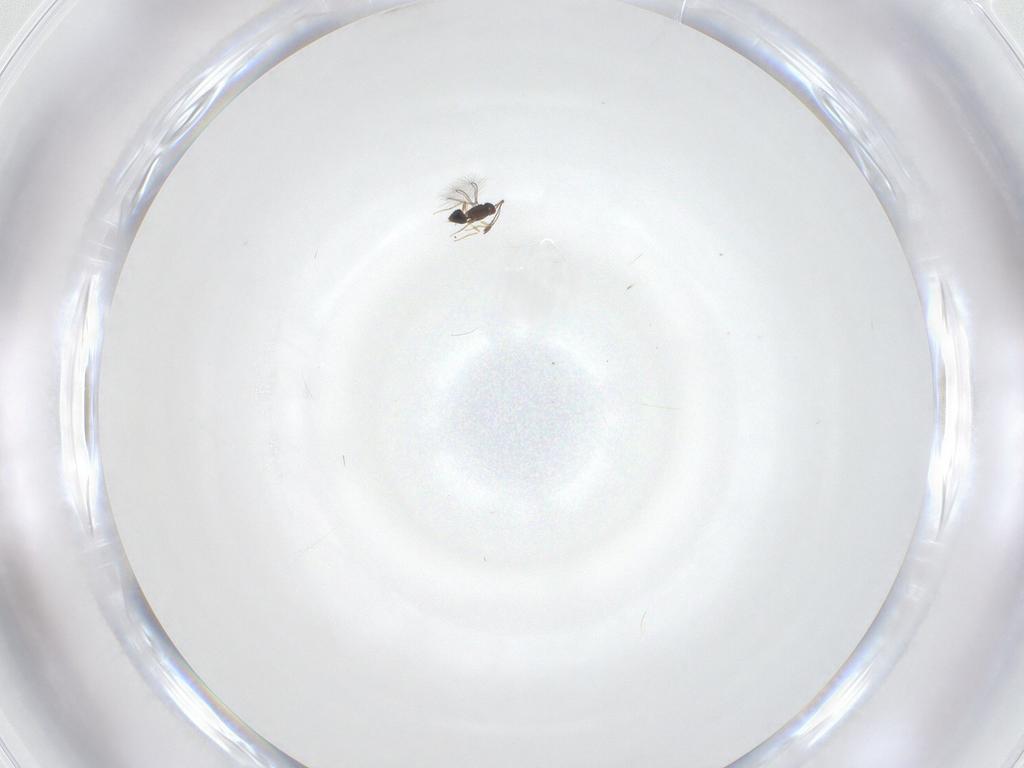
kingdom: Animalia
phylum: Arthropoda
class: Insecta
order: Hymenoptera
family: Mymaridae
